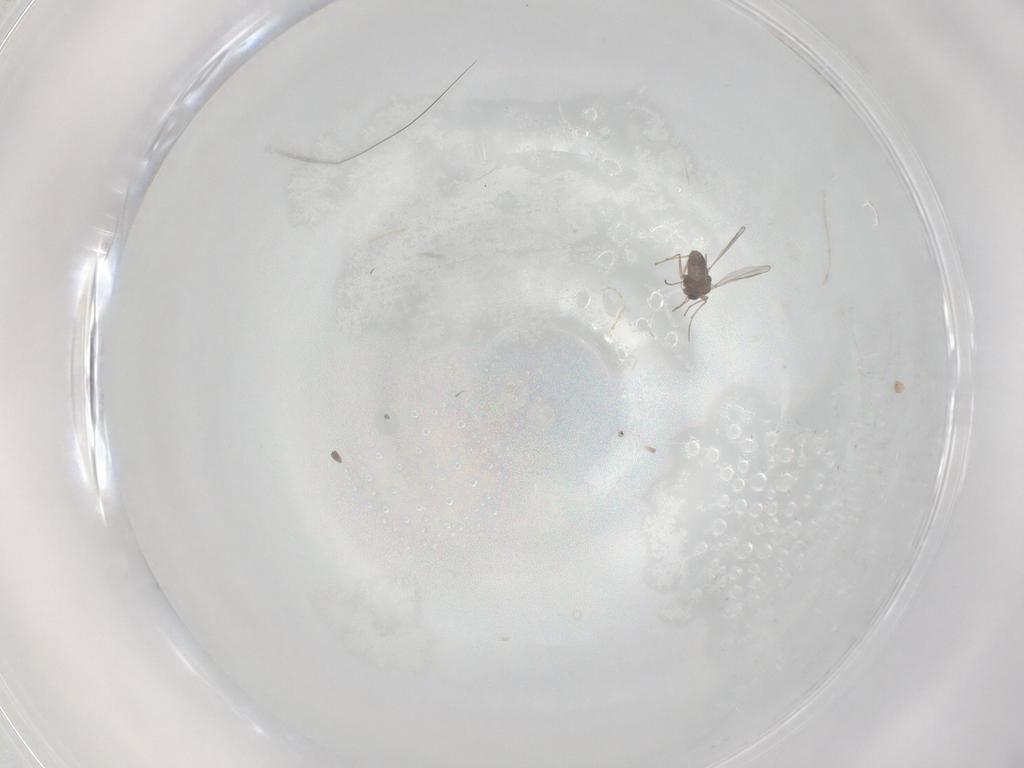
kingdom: Animalia
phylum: Arthropoda
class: Insecta
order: Diptera
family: Chironomidae
